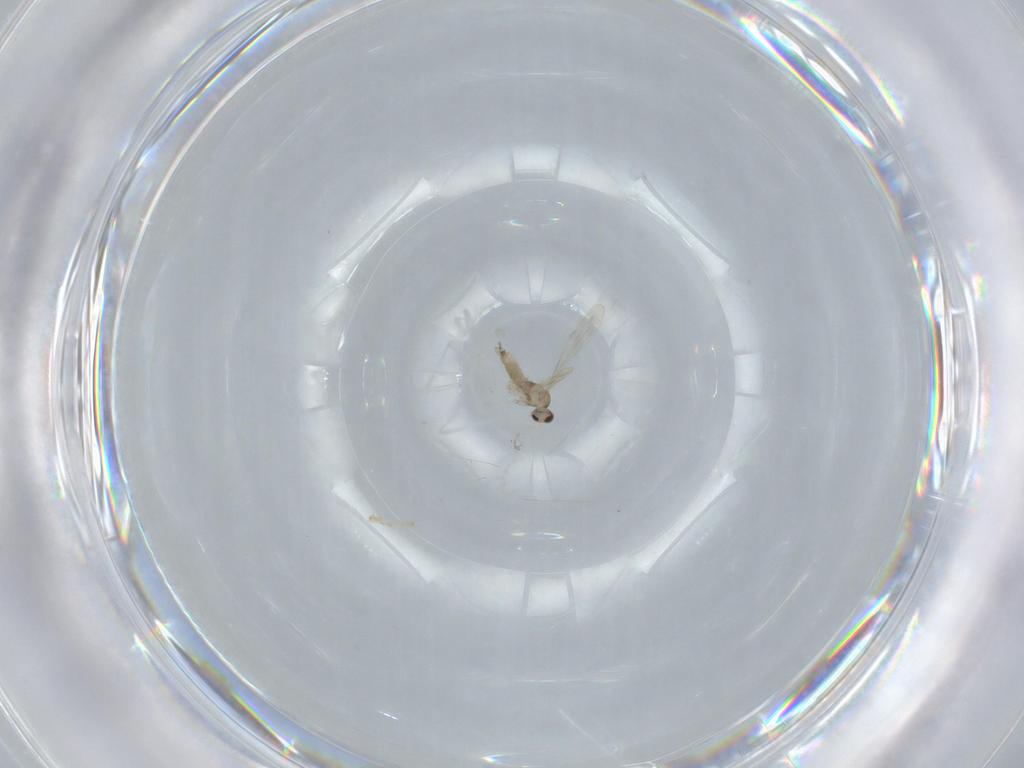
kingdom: Animalia
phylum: Arthropoda
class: Insecta
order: Diptera
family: Cecidomyiidae
